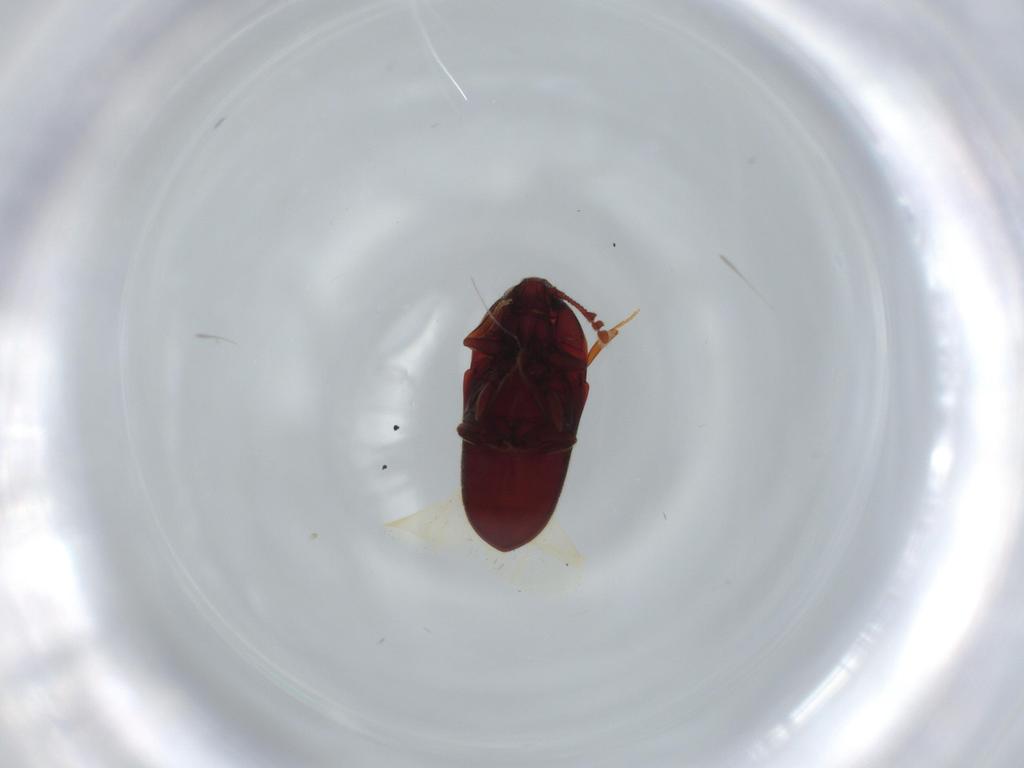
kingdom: Animalia
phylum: Arthropoda
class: Insecta
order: Coleoptera
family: Throscidae
